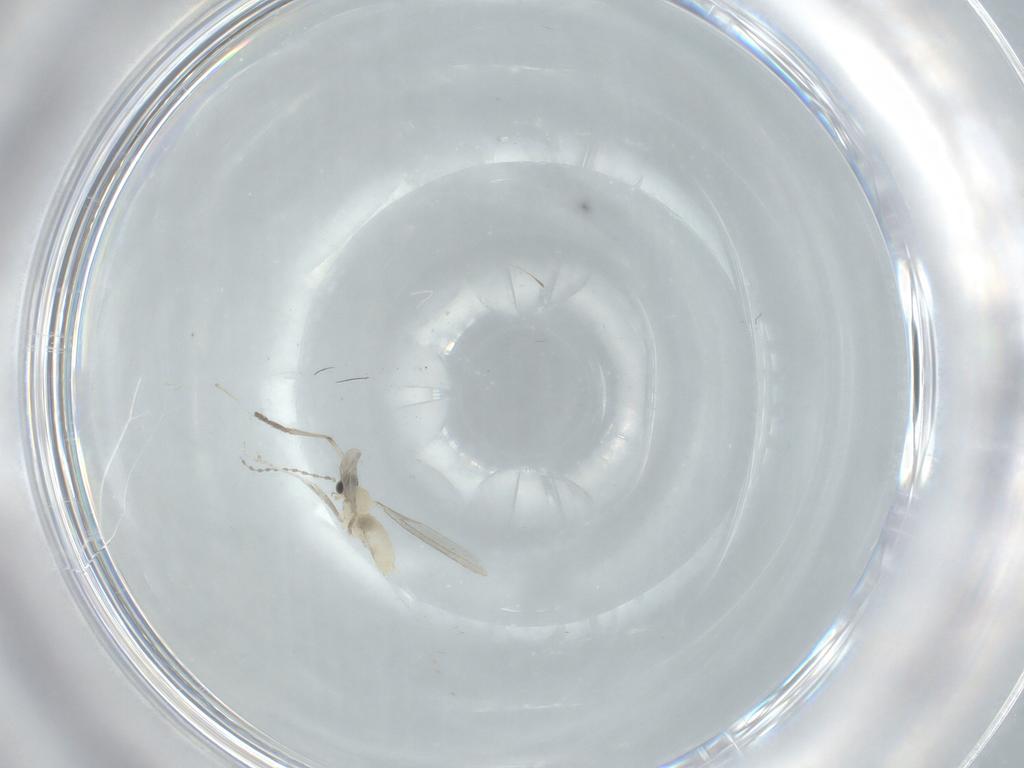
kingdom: Animalia
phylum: Arthropoda
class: Insecta
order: Diptera
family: Cecidomyiidae
